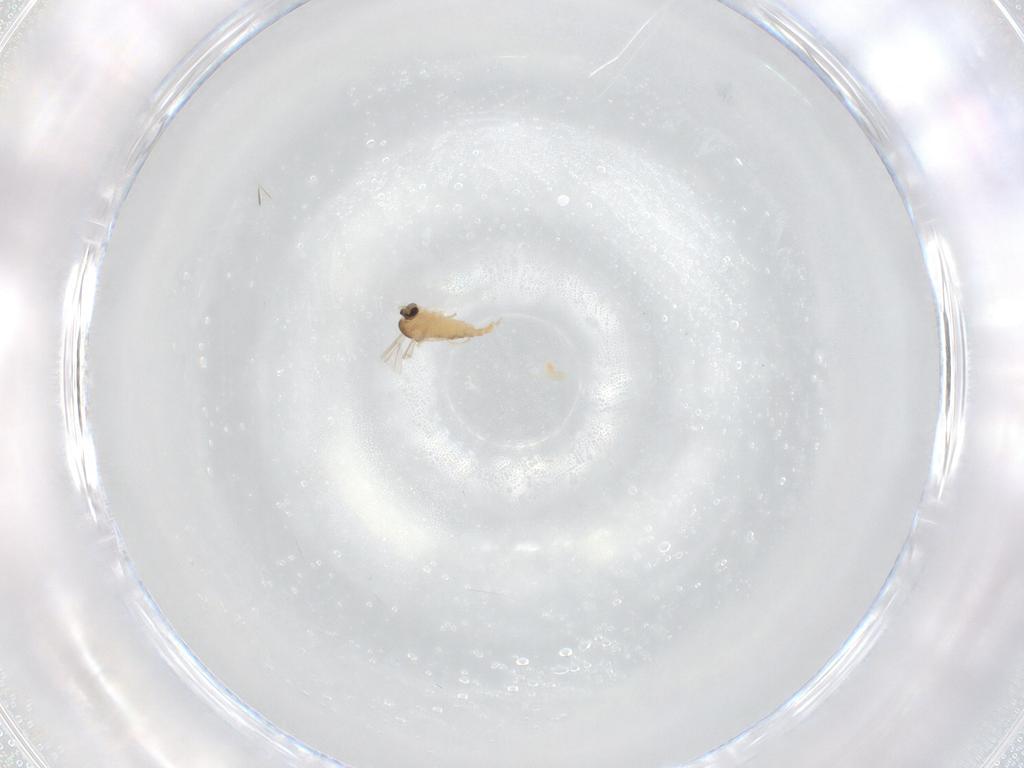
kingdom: Animalia
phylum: Arthropoda
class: Insecta
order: Diptera
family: Cecidomyiidae
